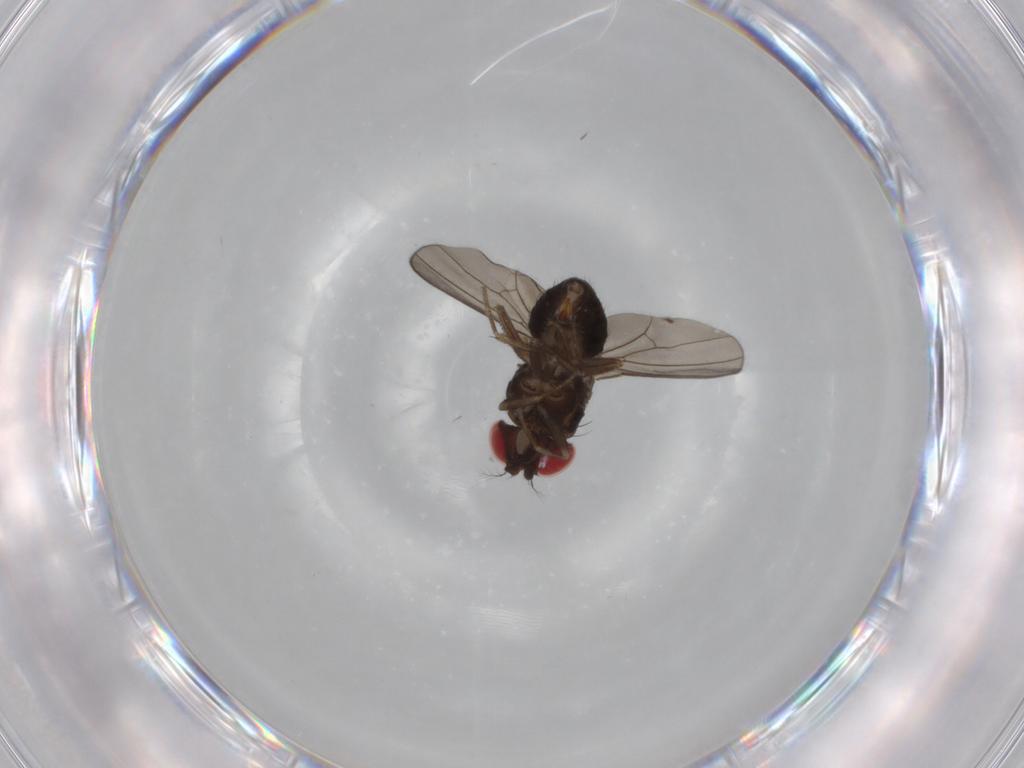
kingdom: Animalia
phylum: Arthropoda
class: Insecta
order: Diptera
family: Drosophilidae
